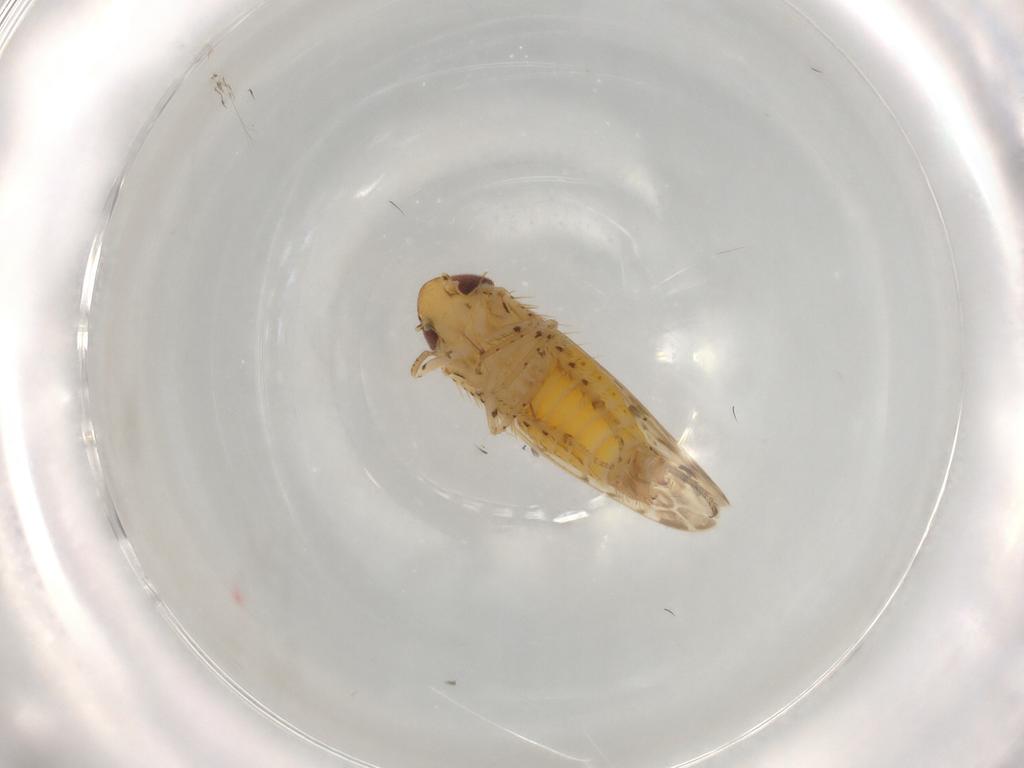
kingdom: Animalia
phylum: Arthropoda
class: Insecta
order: Hemiptera
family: Cicadellidae
